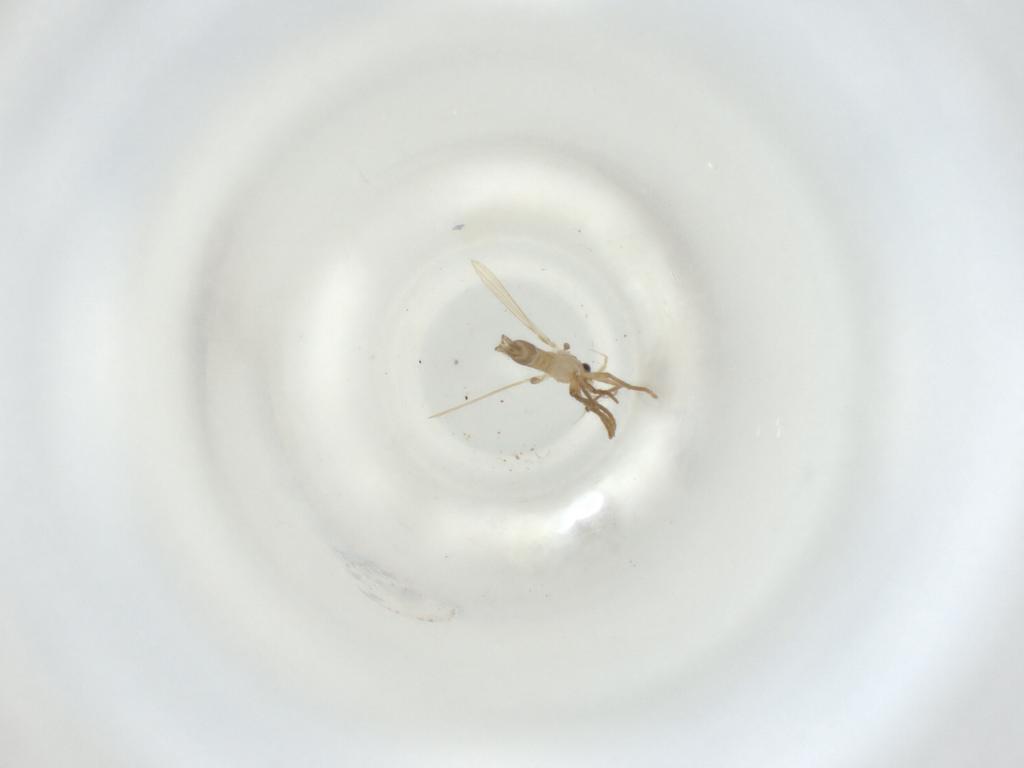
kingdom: Animalia
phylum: Arthropoda
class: Insecta
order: Diptera
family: Psychodidae
